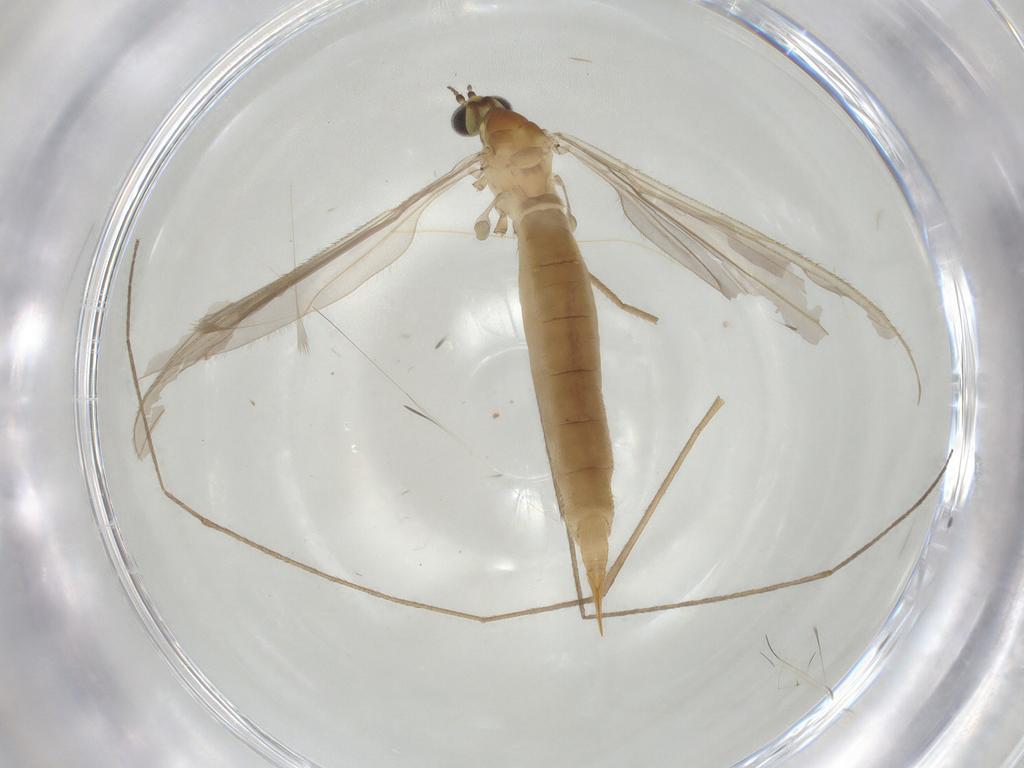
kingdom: Animalia
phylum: Arthropoda
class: Insecta
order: Diptera
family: Limoniidae
